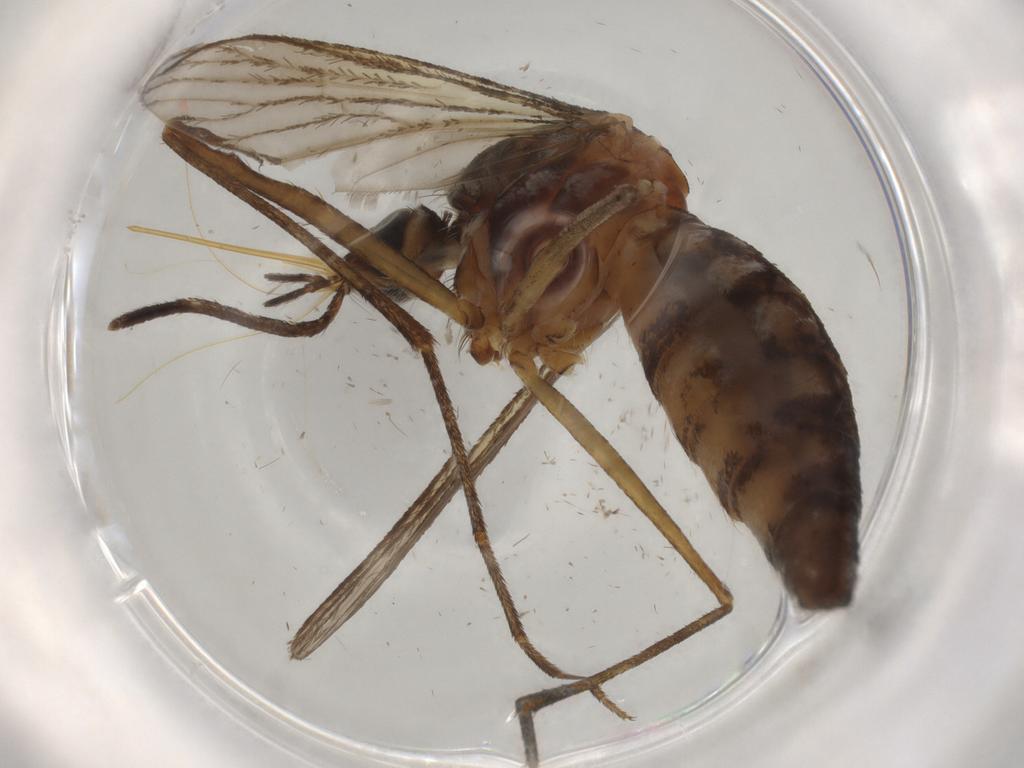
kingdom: Animalia
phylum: Arthropoda
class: Insecta
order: Diptera
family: Culicidae
